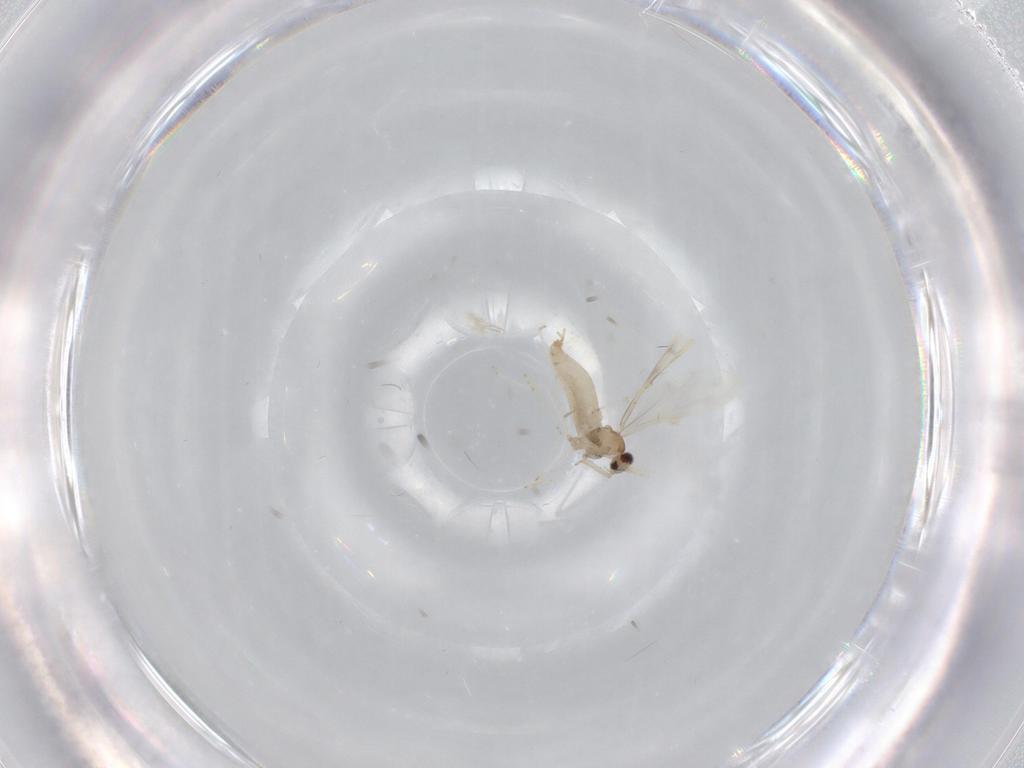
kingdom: Animalia
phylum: Arthropoda
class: Insecta
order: Diptera
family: Cecidomyiidae
